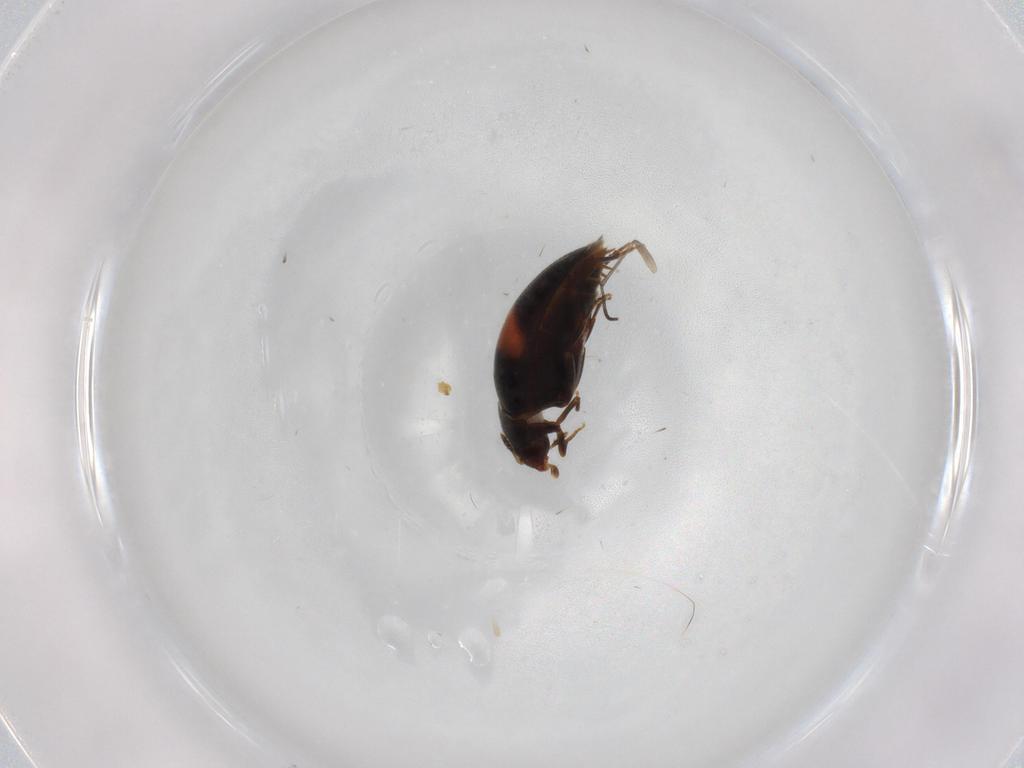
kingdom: Animalia
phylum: Arthropoda
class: Insecta
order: Coleoptera
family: Melandryidae
